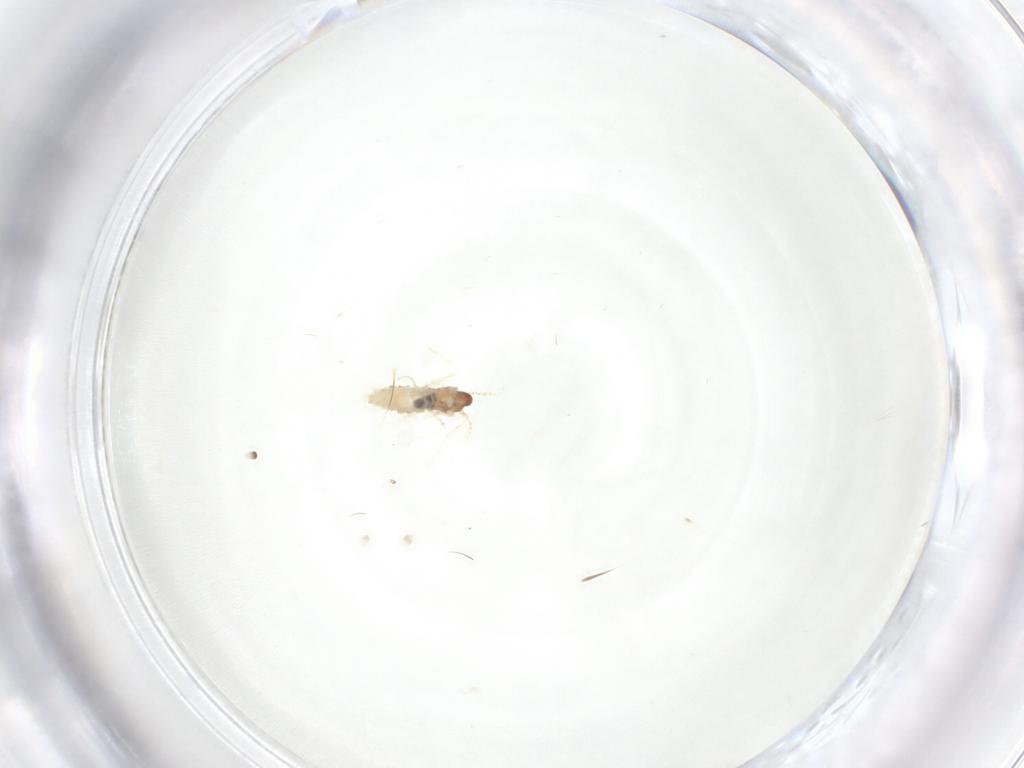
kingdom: Animalia
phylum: Arthropoda
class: Insecta
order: Diptera
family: Cecidomyiidae
